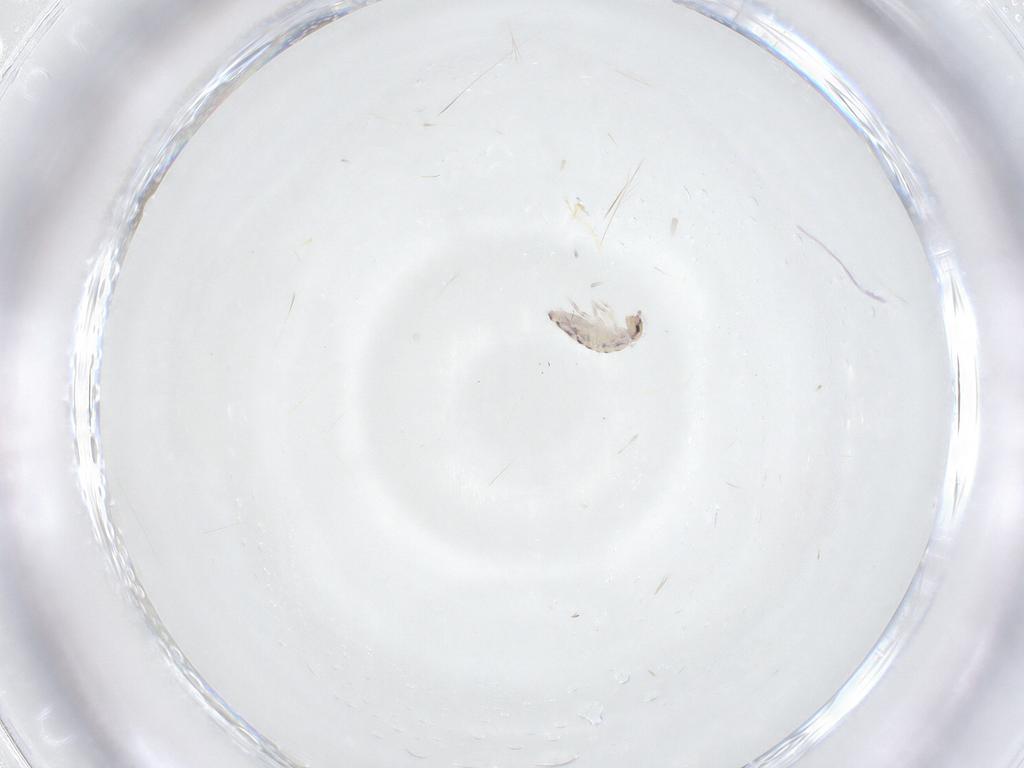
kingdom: Animalia
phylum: Arthropoda
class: Collembola
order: Entomobryomorpha
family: Entomobryidae
